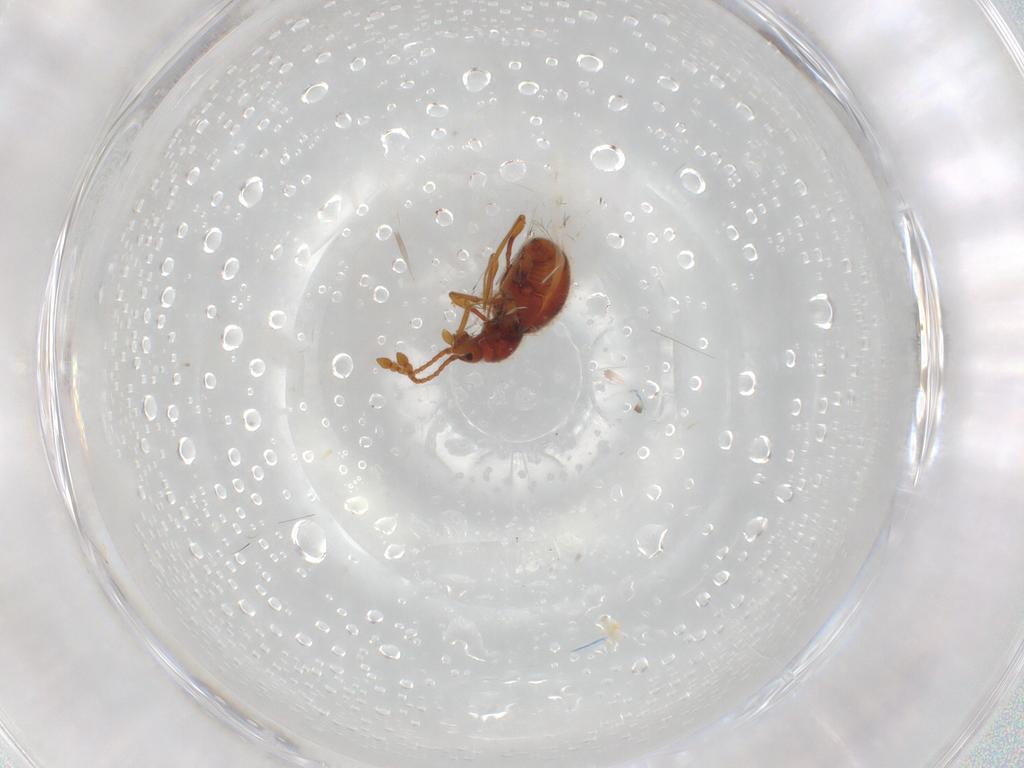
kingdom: Animalia
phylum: Arthropoda
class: Insecta
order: Coleoptera
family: Staphylinidae
